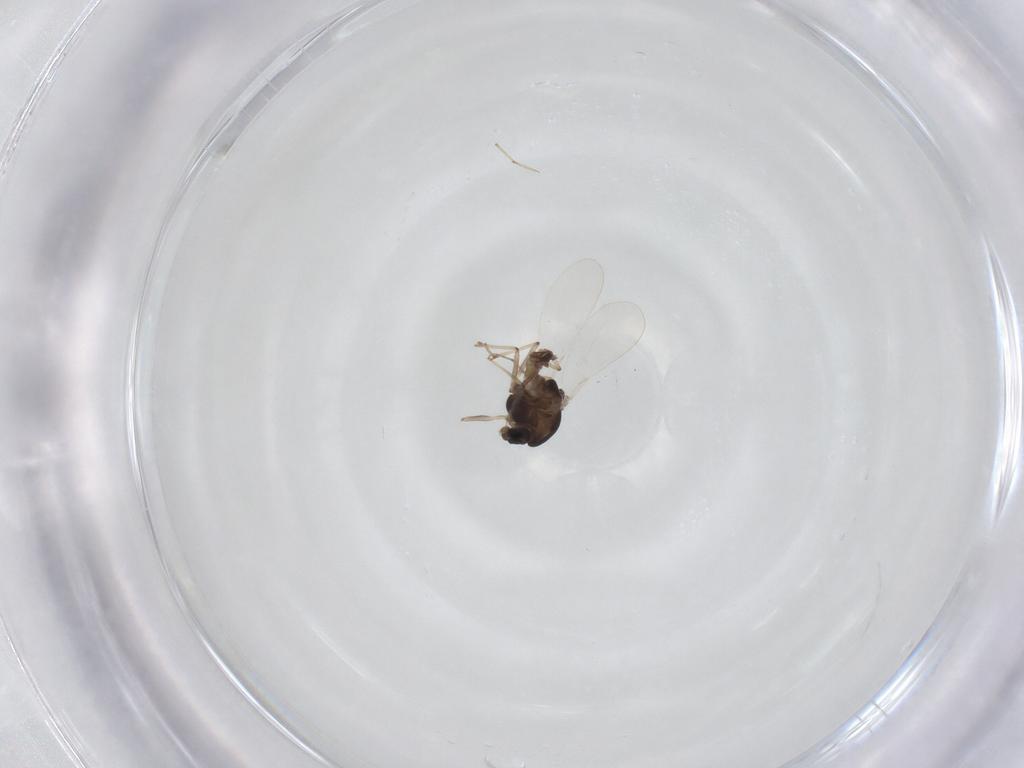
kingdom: Animalia
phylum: Arthropoda
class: Insecta
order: Diptera
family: Chironomidae
